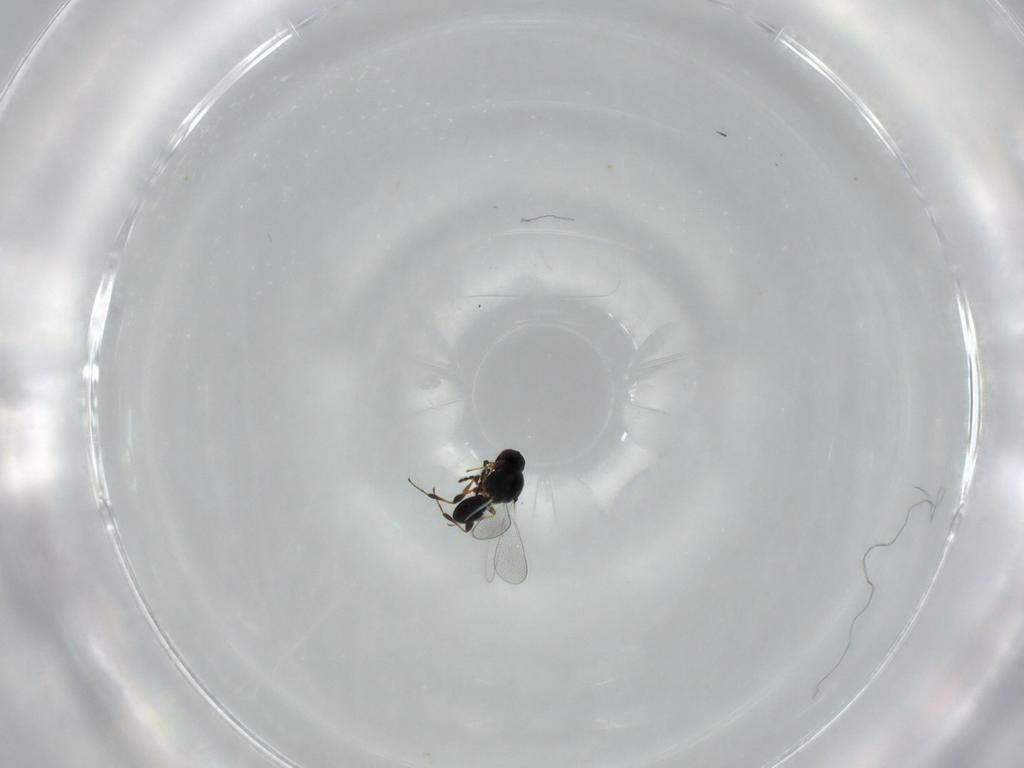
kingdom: Animalia
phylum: Arthropoda
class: Insecta
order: Hymenoptera
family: Platygastridae
